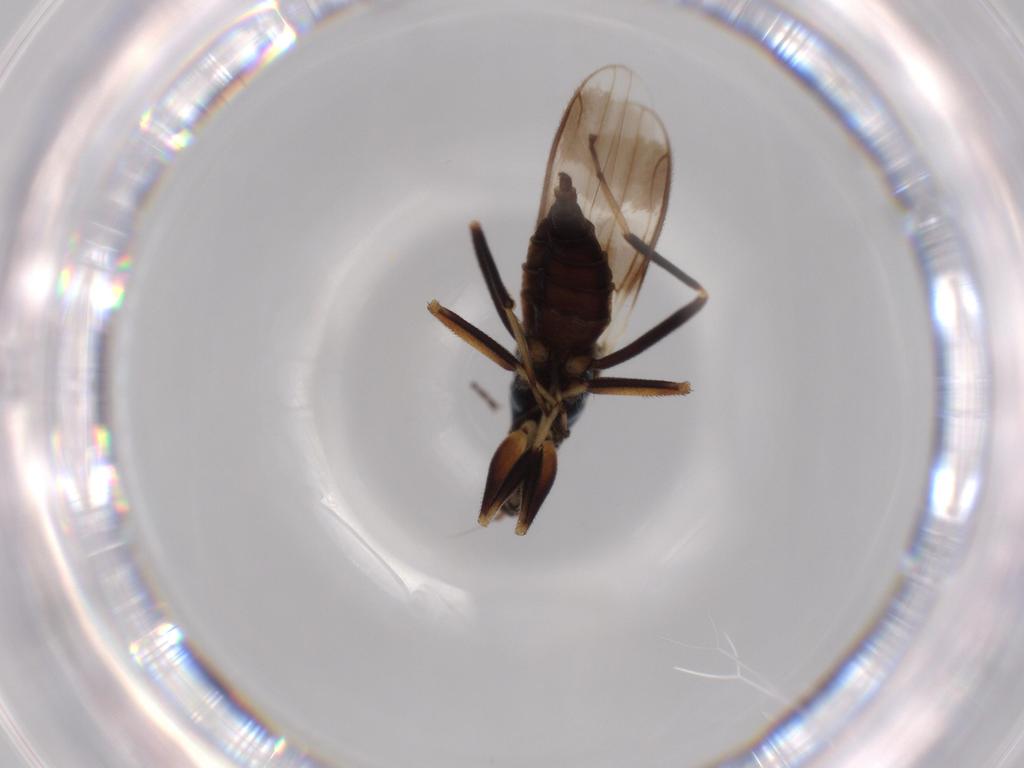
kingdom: Animalia
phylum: Arthropoda
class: Insecta
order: Diptera
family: Hybotidae
